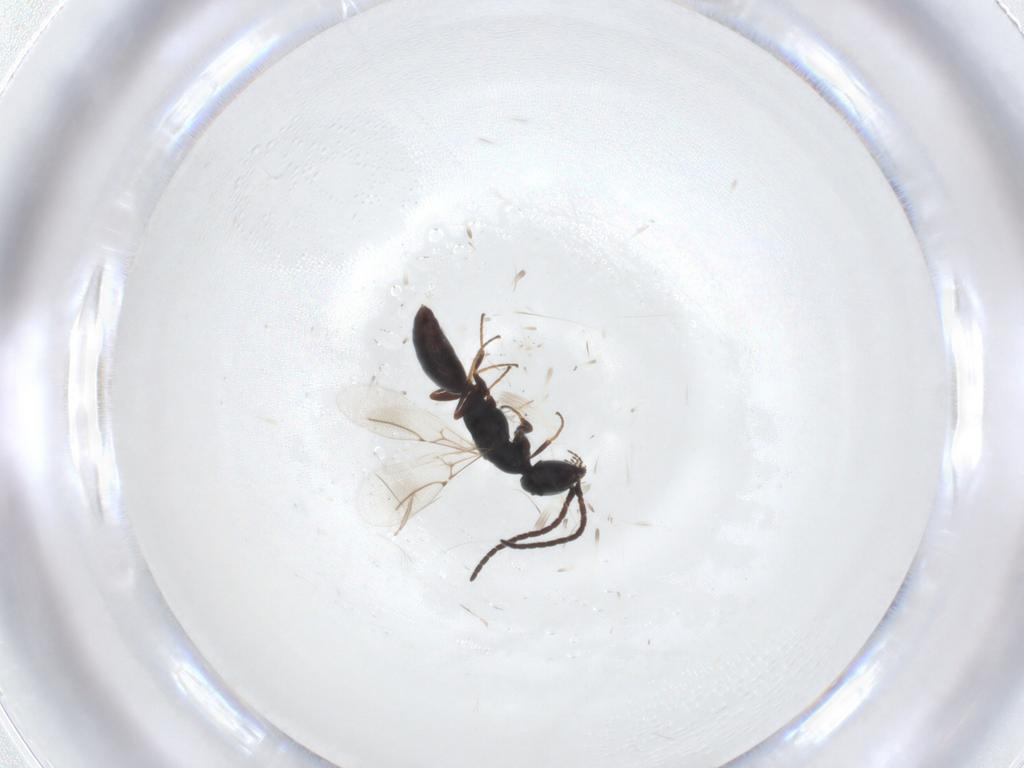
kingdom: Animalia
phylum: Arthropoda
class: Insecta
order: Hymenoptera
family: Bethylidae
